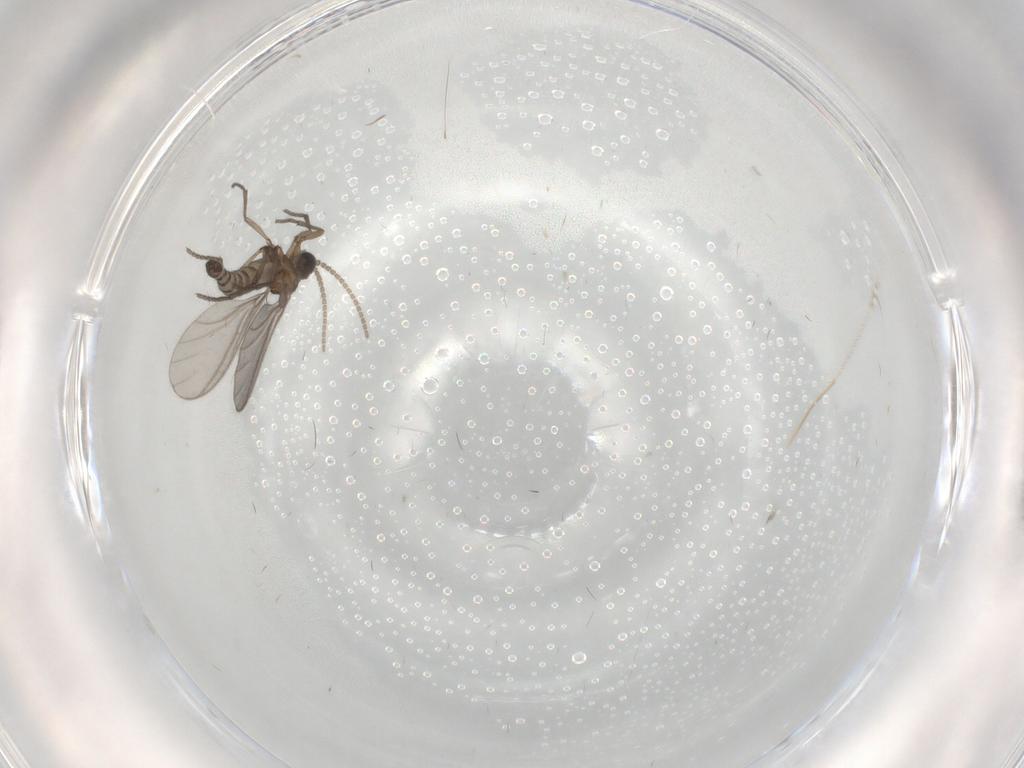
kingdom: Animalia
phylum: Arthropoda
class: Insecta
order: Diptera
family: Sciaridae
